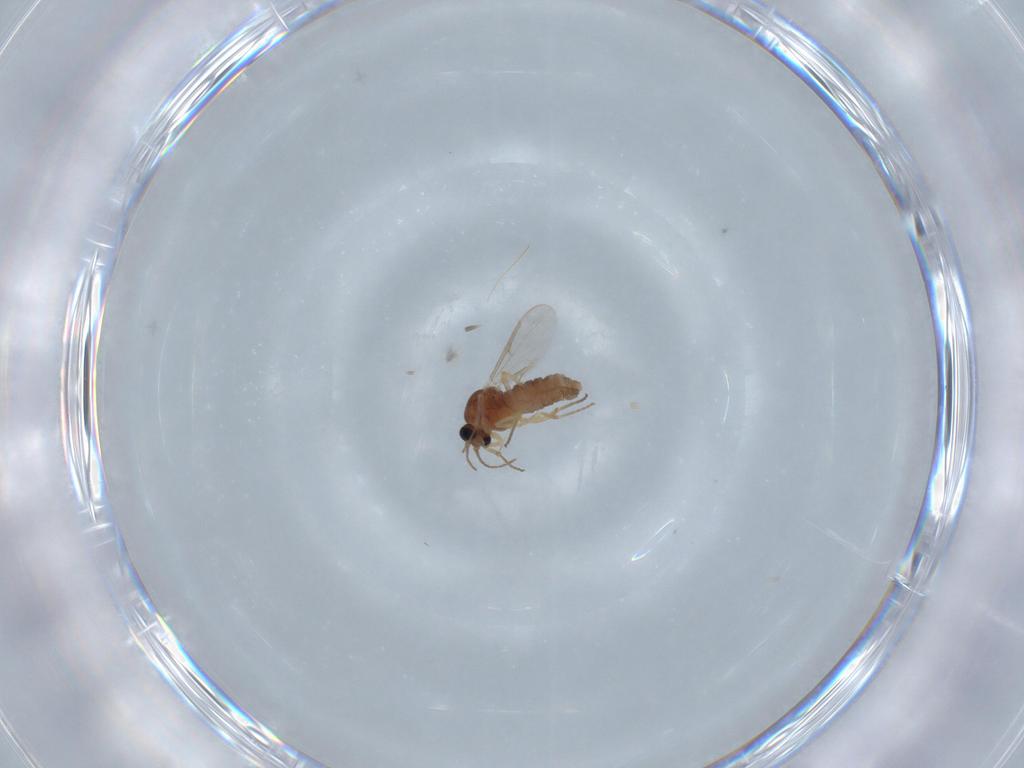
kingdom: Animalia
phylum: Arthropoda
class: Insecta
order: Diptera
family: Ceratopogonidae
